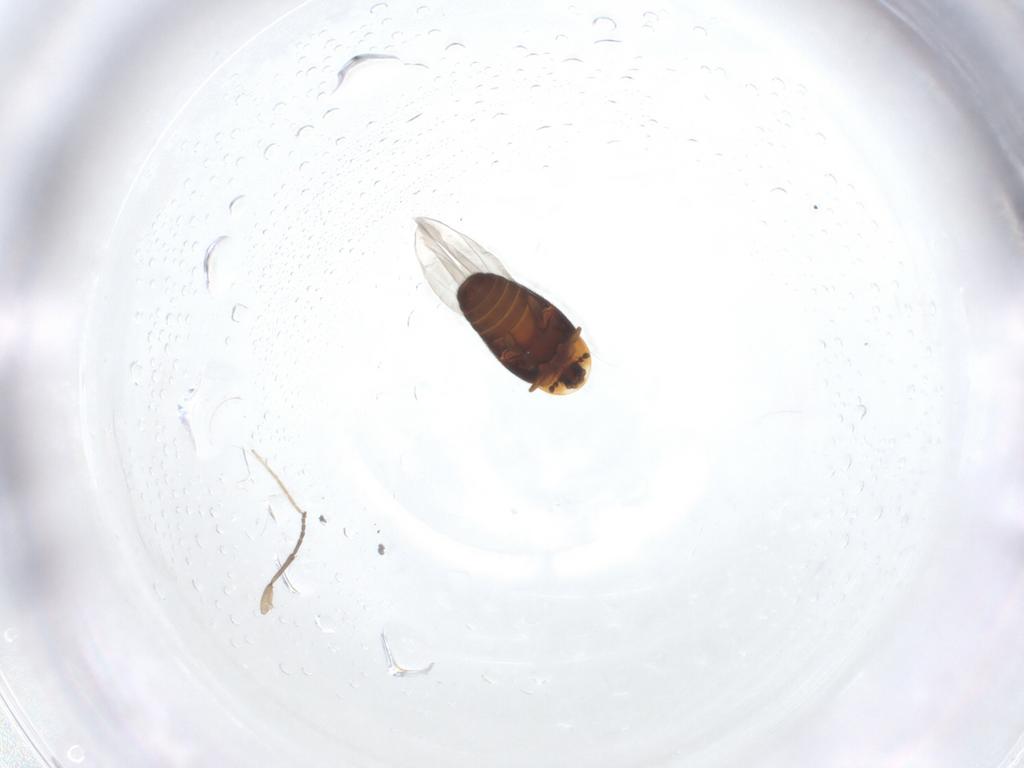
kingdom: Animalia
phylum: Arthropoda
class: Insecta
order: Coleoptera
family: Corylophidae
